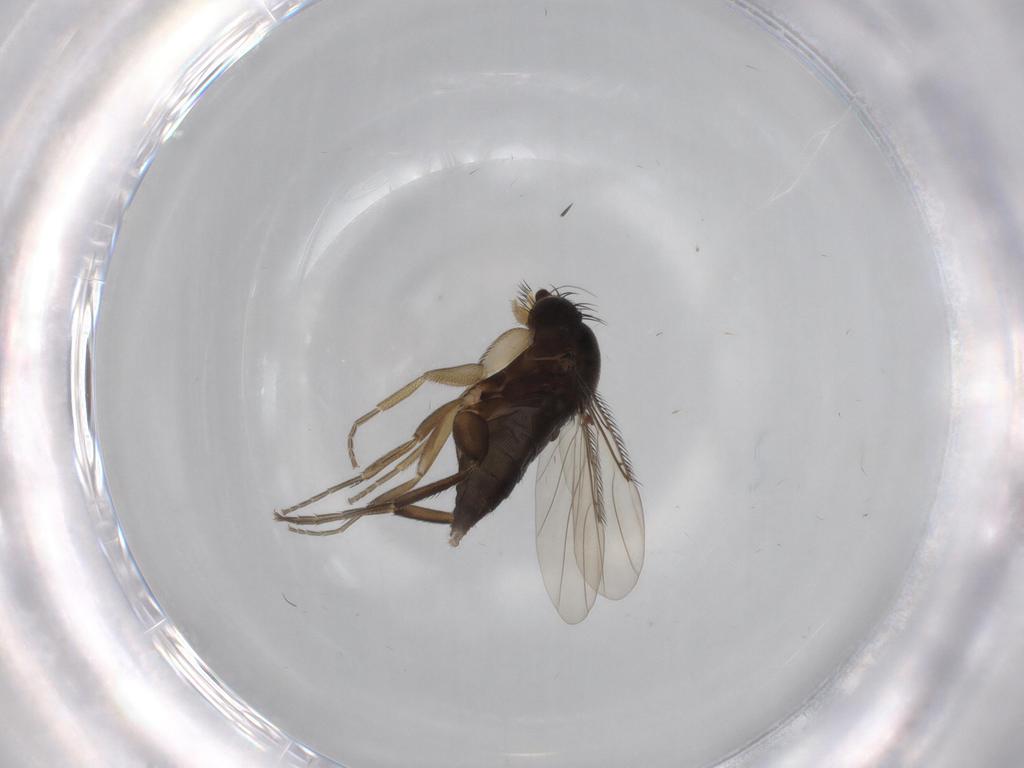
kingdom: Animalia
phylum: Arthropoda
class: Insecta
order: Diptera
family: Phoridae
